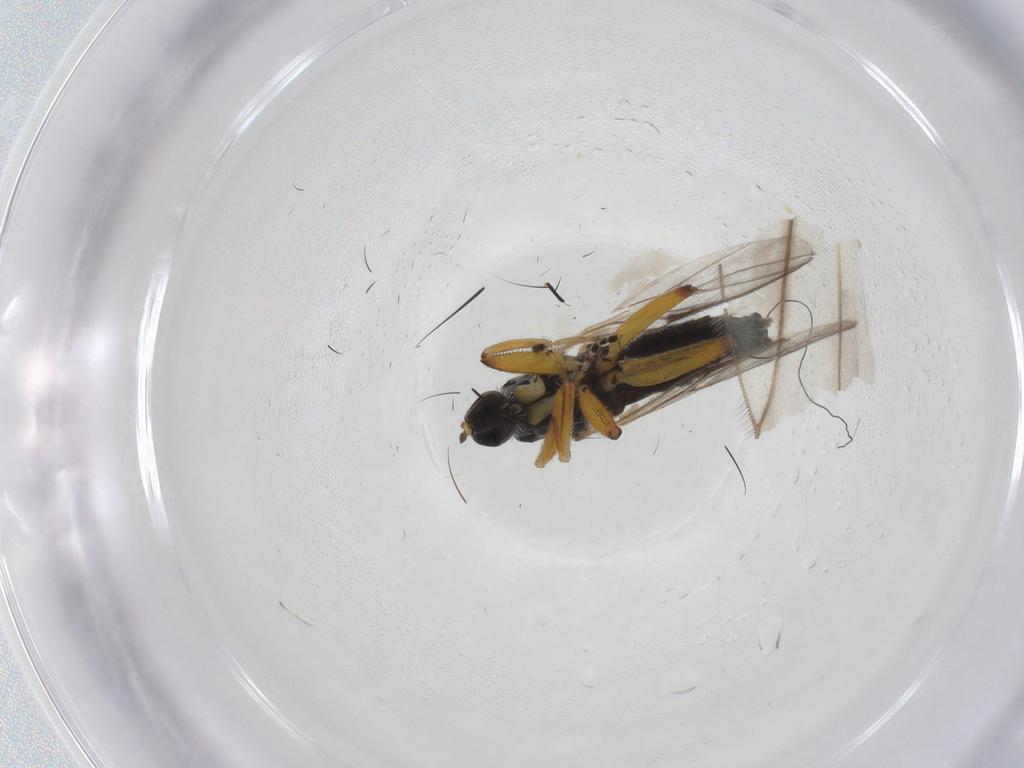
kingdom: Animalia
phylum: Arthropoda
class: Insecta
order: Diptera
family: Hybotidae
